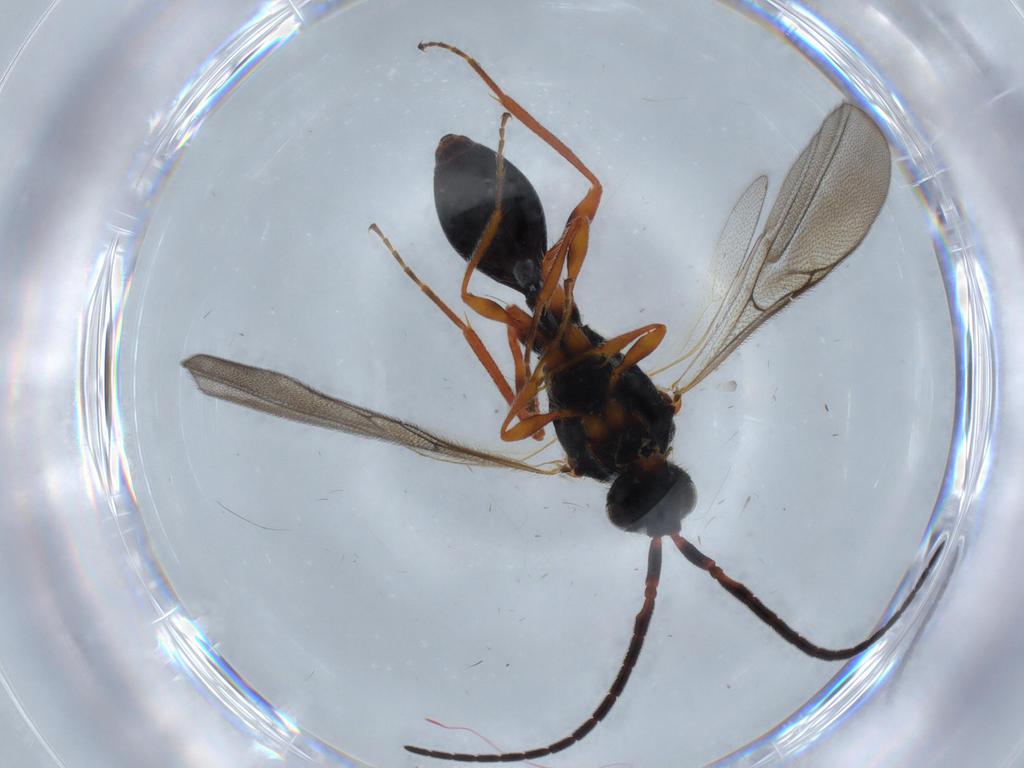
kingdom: Animalia
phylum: Arthropoda
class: Insecta
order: Hymenoptera
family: Diapriidae
